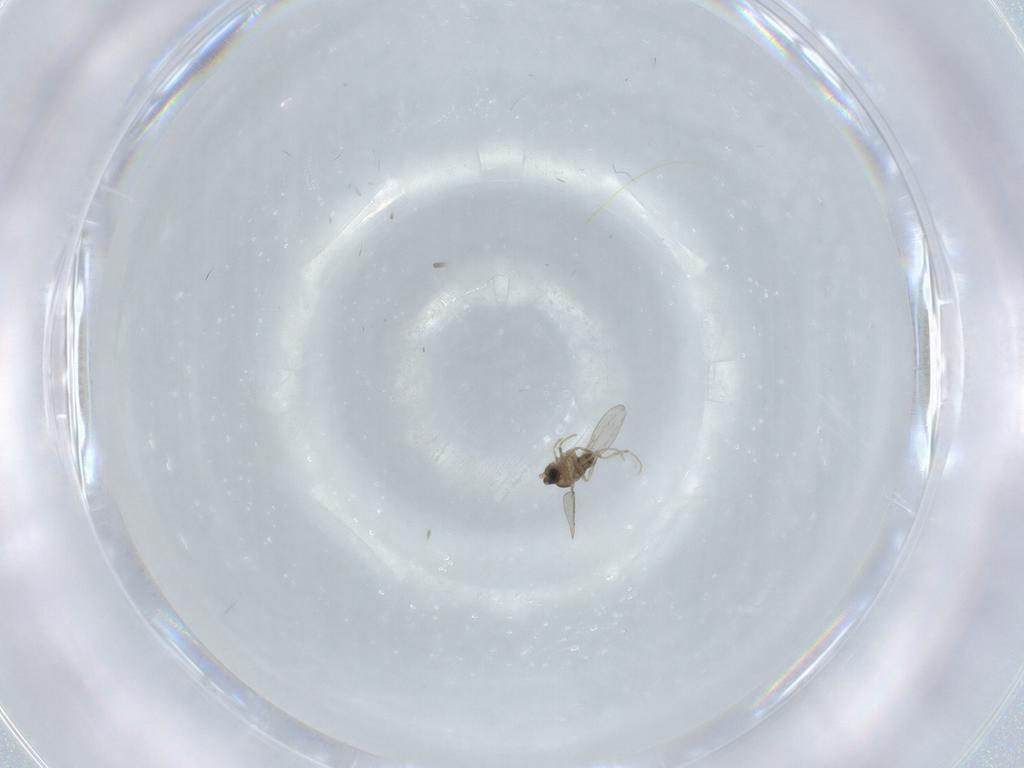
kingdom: Animalia
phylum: Arthropoda
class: Insecta
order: Diptera
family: Cecidomyiidae
